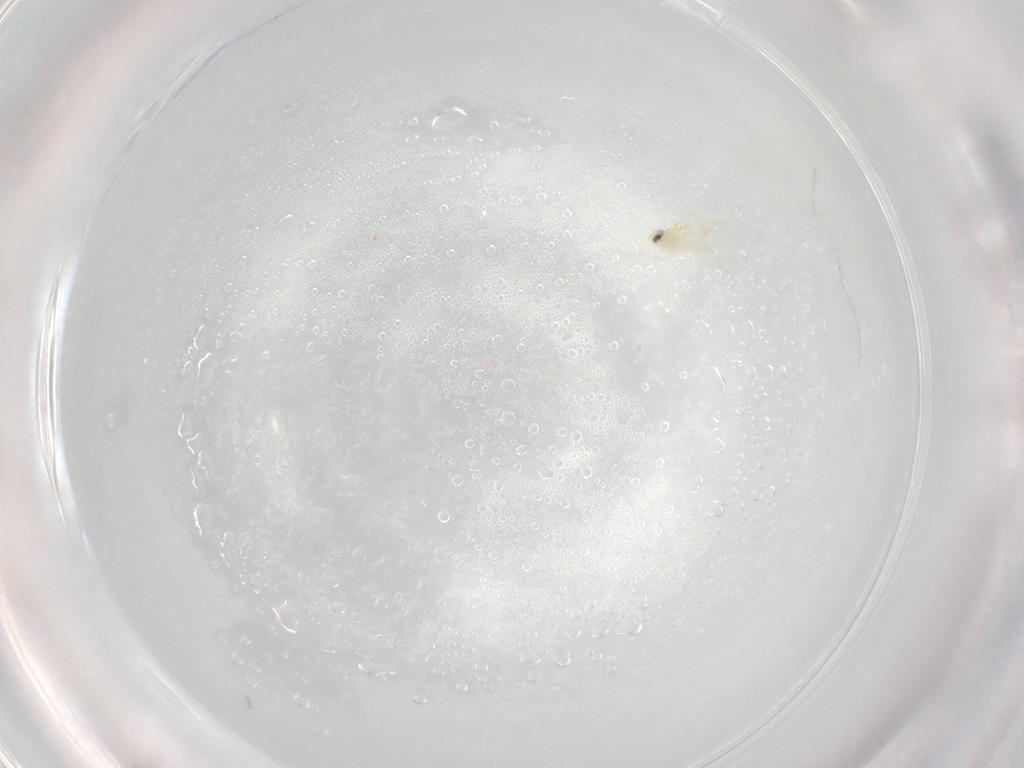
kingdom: Animalia
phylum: Arthropoda
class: Insecta
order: Hemiptera
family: Aleyrodidae
